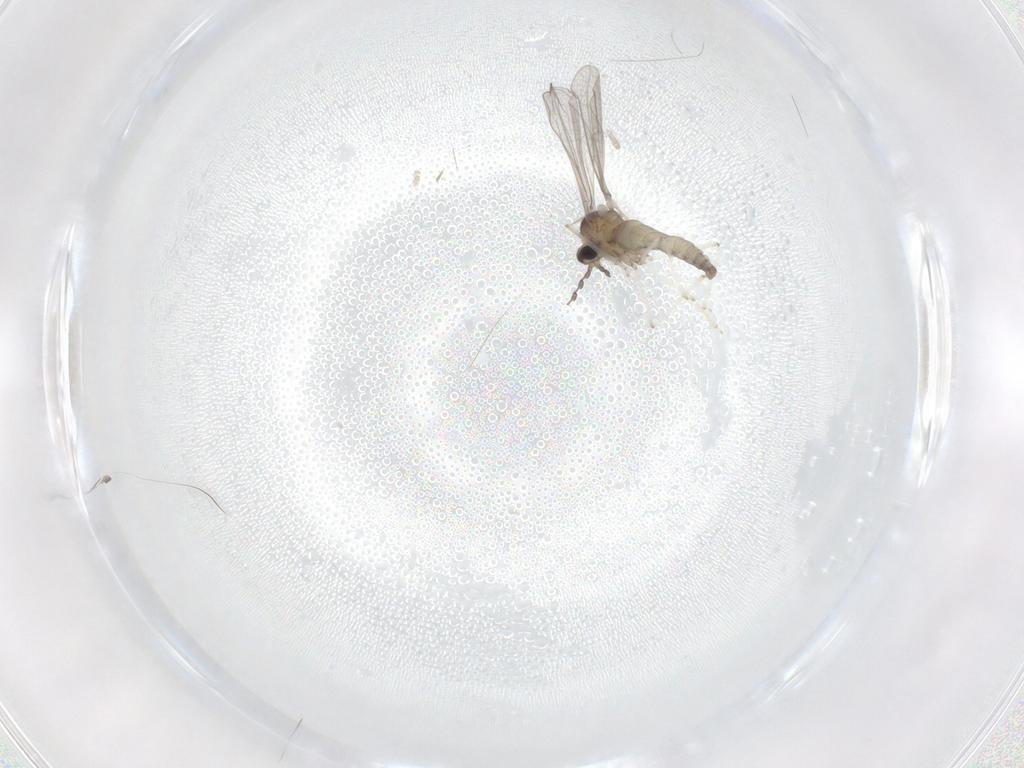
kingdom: Animalia
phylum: Arthropoda
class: Insecta
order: Diptera
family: Cecidomyiidae
